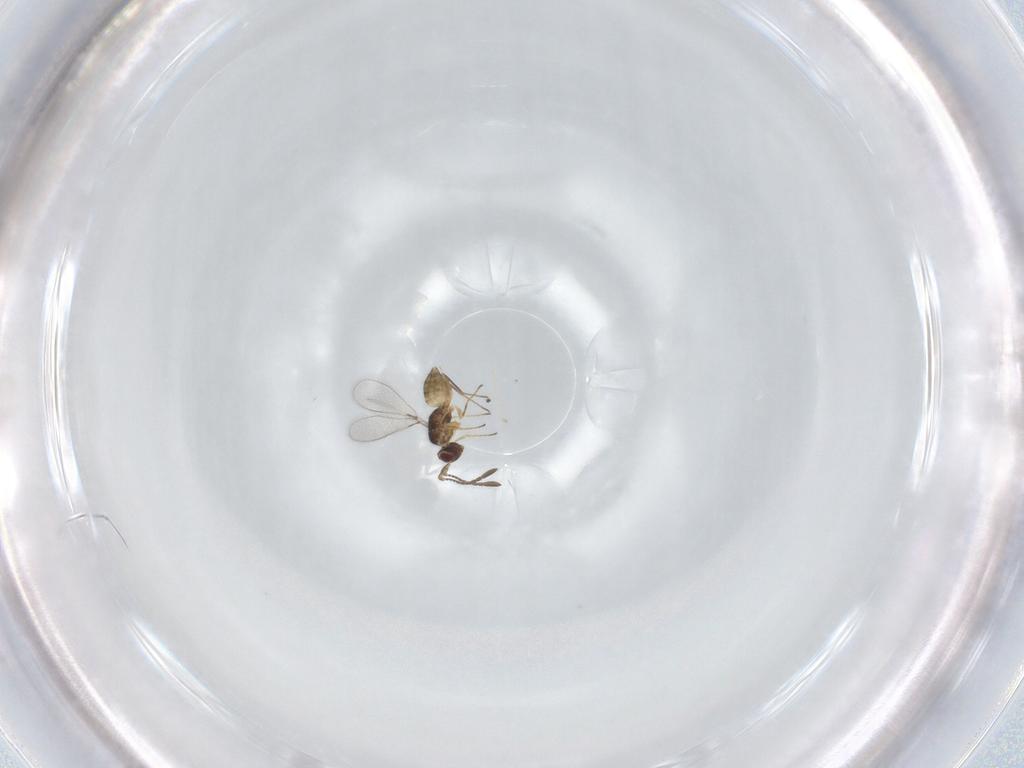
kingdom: Animalia
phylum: Arthropoda
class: Insecta
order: Hymenoptera
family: Mymaridae
